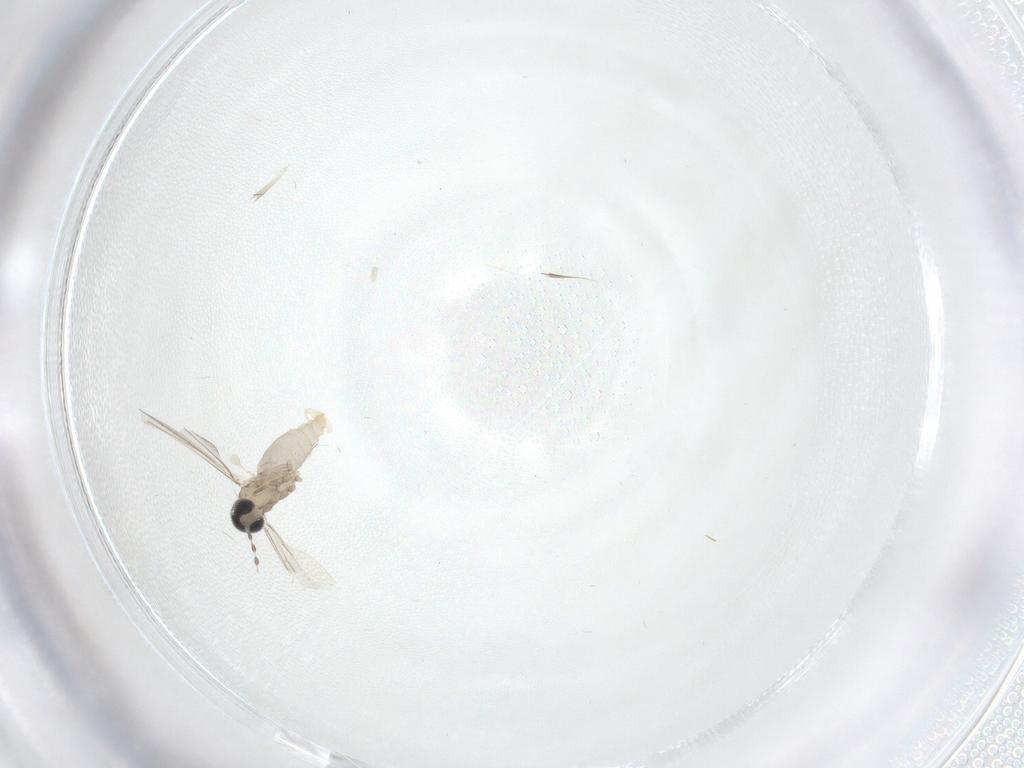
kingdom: Animalia
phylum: Arthropoda
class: Insecta
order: Diptera
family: Cecidomyiidae
